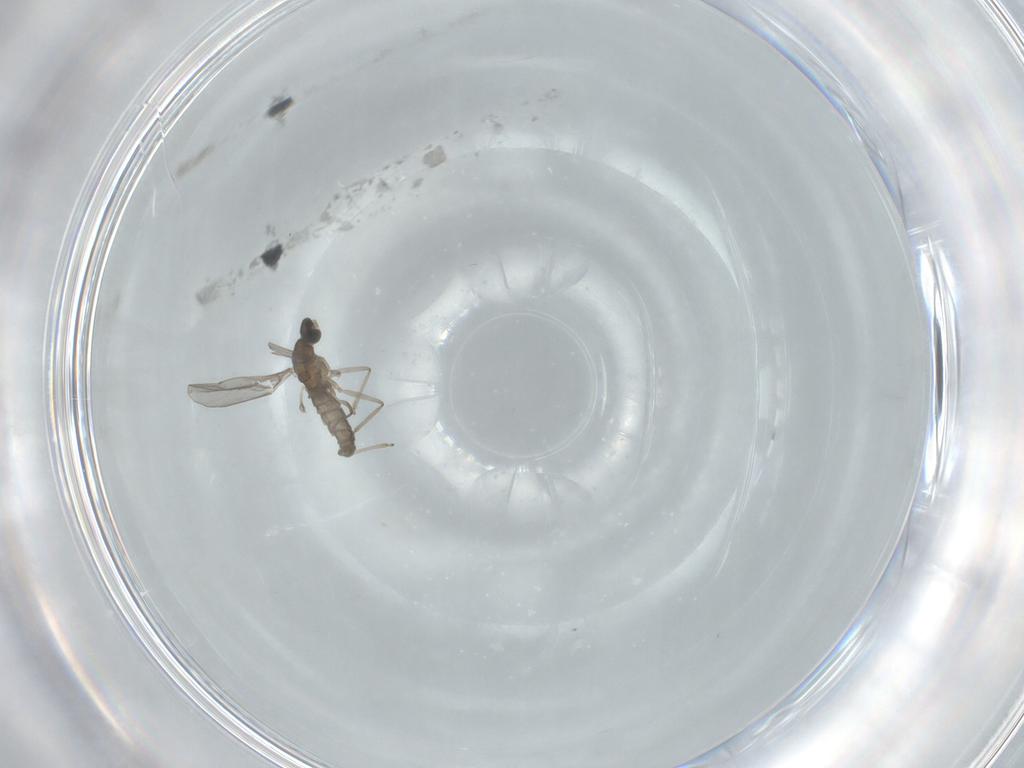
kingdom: Animalia
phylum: Arthropoda
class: Insecta
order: Diptera
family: Cecidomyiidae
